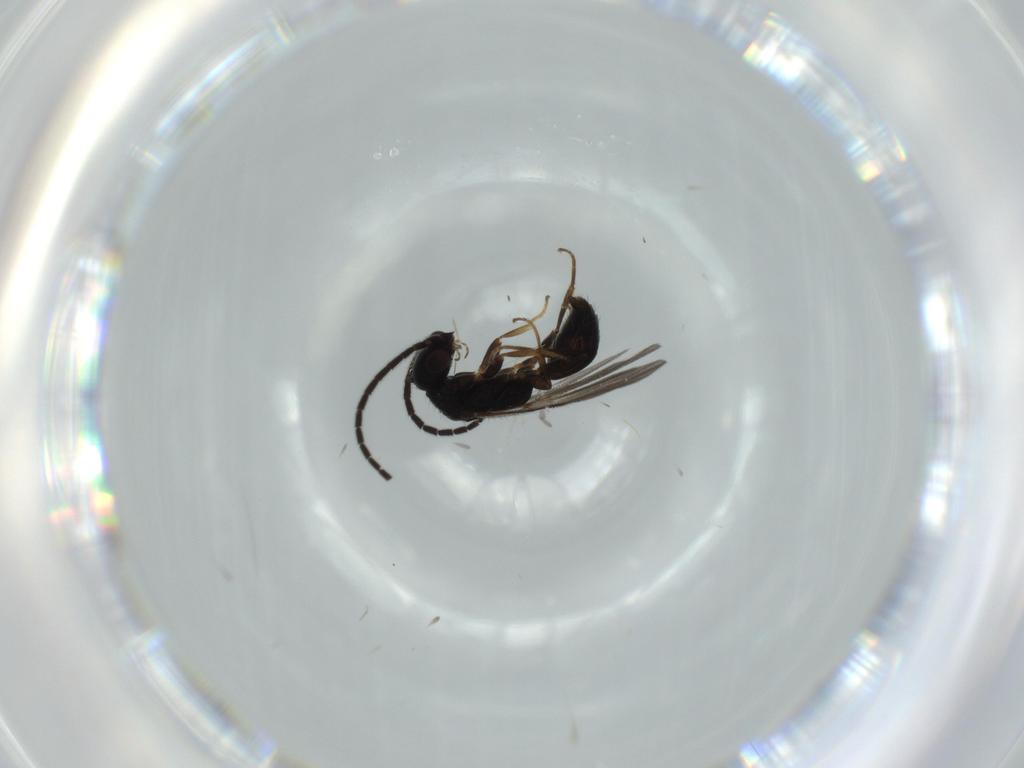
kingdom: Animalia
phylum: Arthropoda
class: Insecta
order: Hymenoptera
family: Bethylidae
